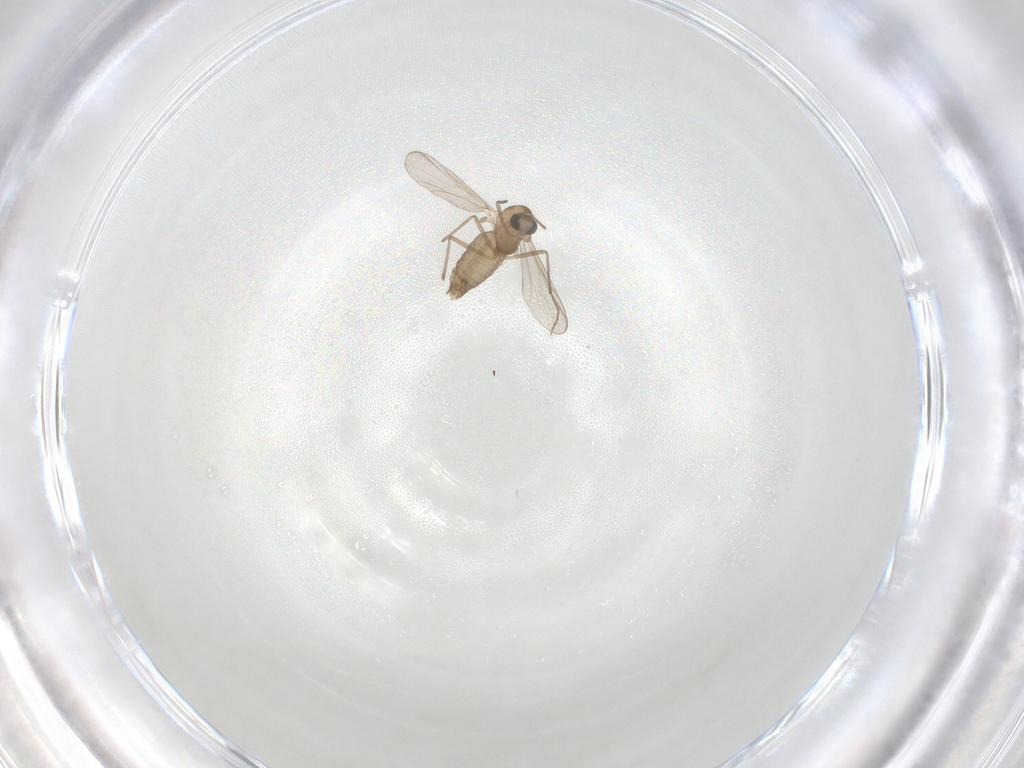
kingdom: Animalia
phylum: Arthropoda
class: Insecta
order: Diptera
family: Chironomidae
